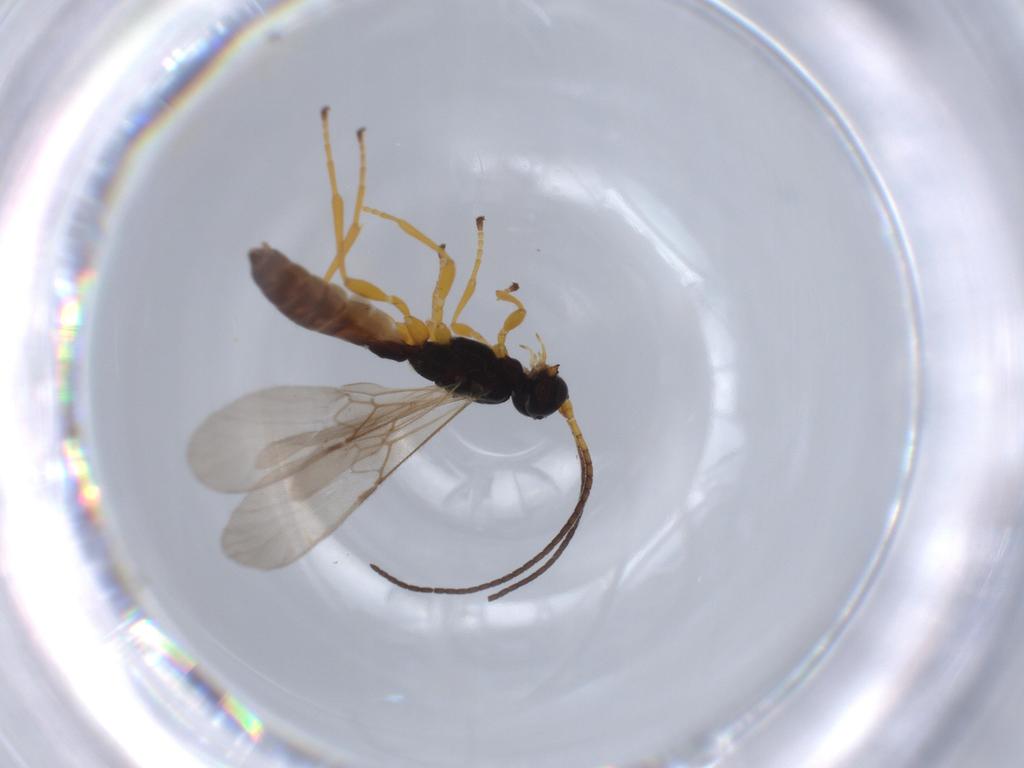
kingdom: Animalia
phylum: Arthropoda
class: Insecta
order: Hymenoptera
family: Braconidae
